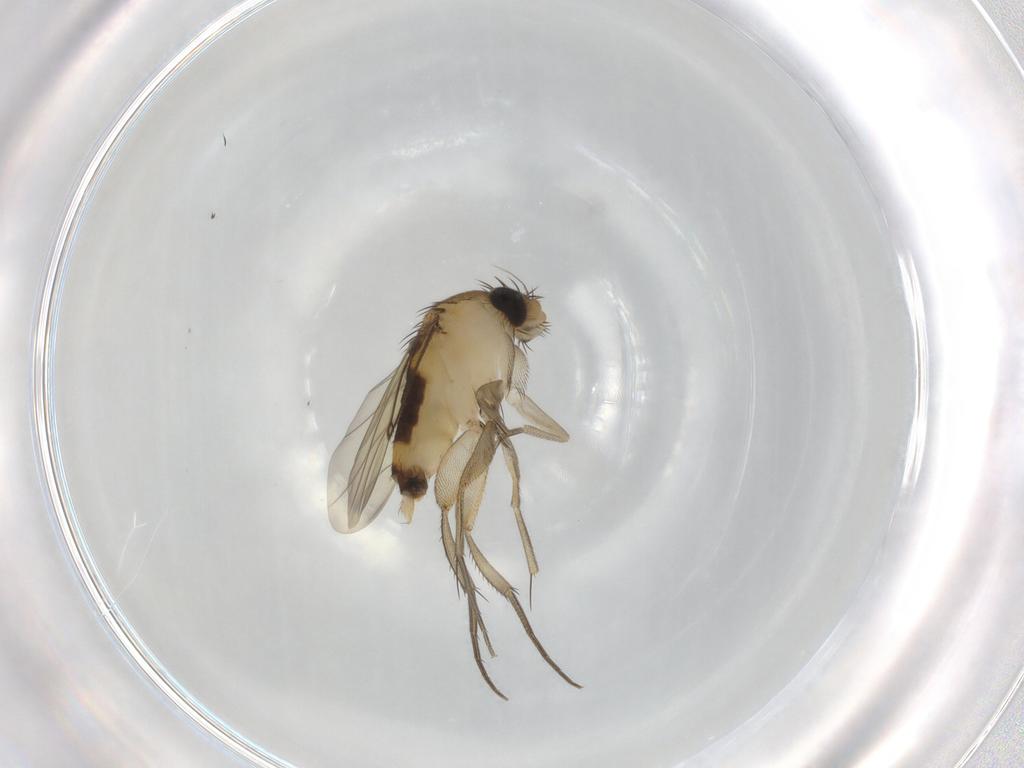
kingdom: Animalia
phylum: Arthropoda
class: Insecta
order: Diptera
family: Phoridae
